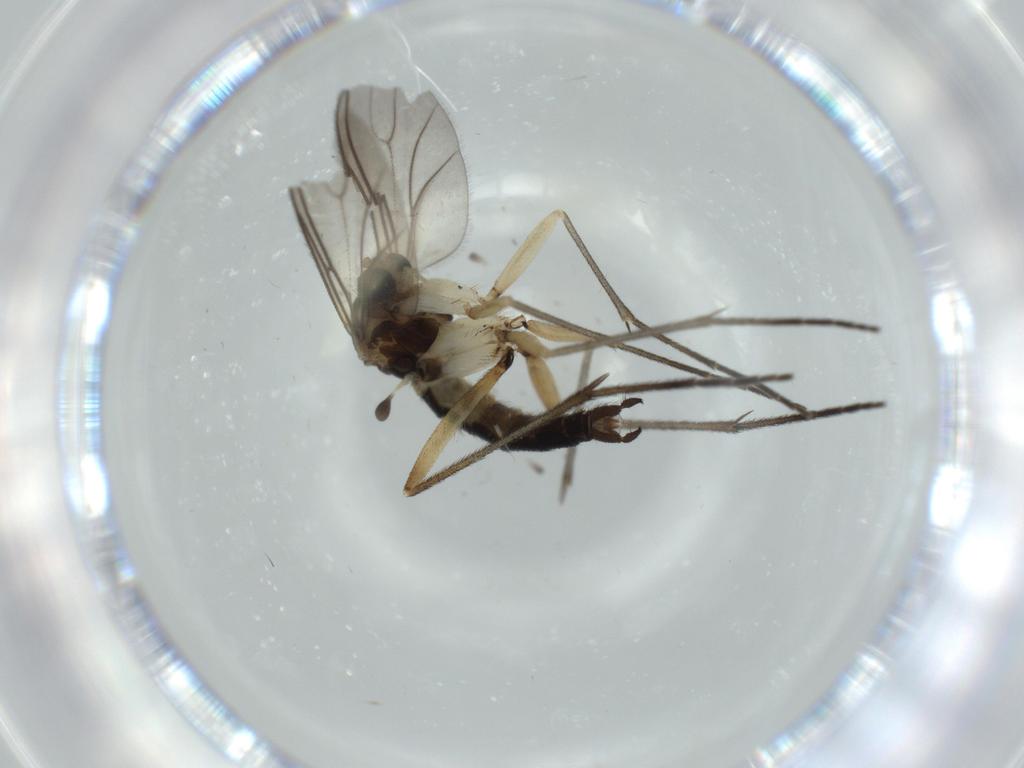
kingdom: Animalia
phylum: Arthropoda
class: Insecta
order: Diptera
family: Sciaridae
